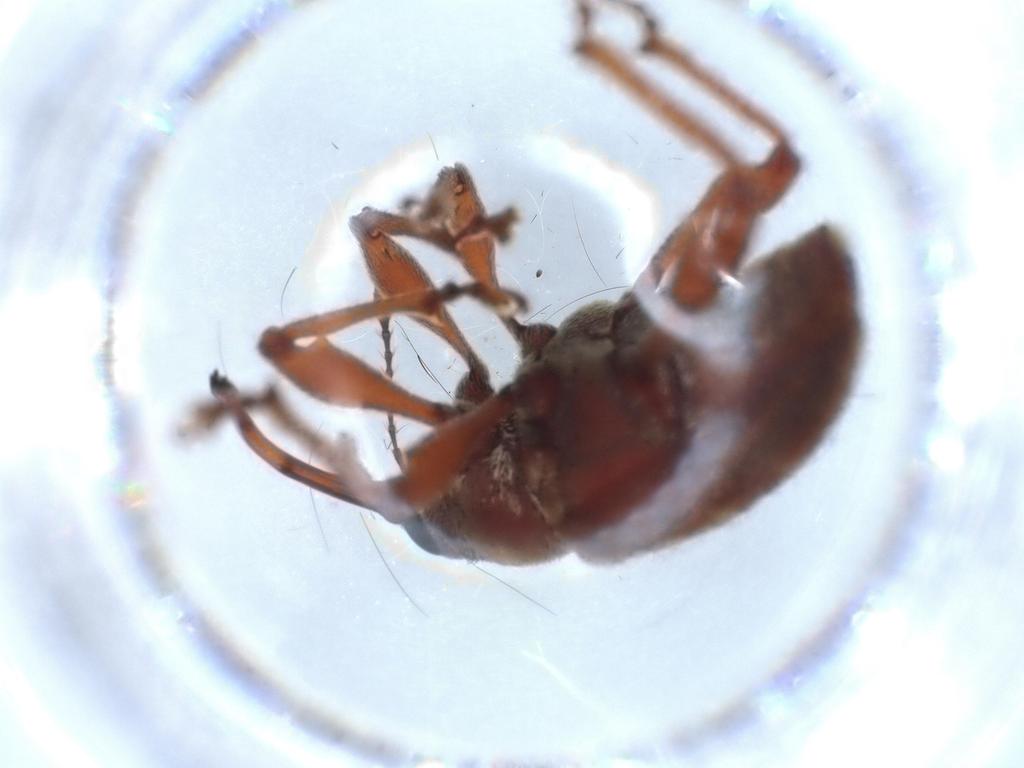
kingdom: Animalia
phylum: Arthropoda
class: Insecta
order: Coleoptera
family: Curculionidae
